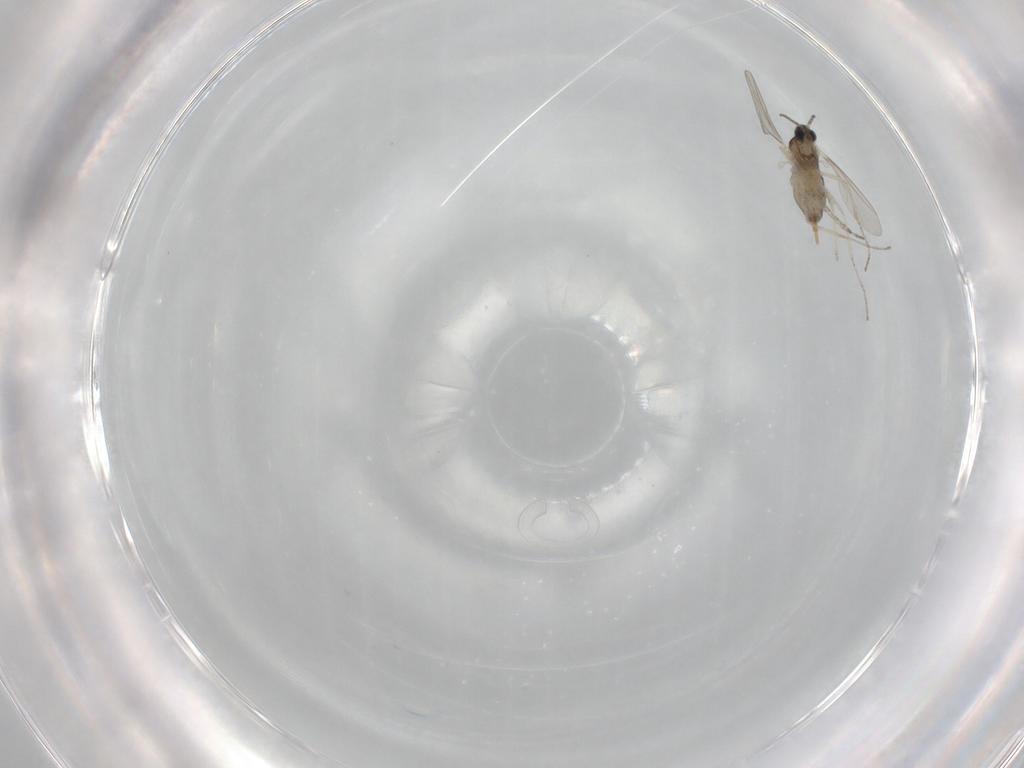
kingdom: Animalia
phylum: Arthropoda
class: Insecta
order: Diptera
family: Cecidomyiidae
